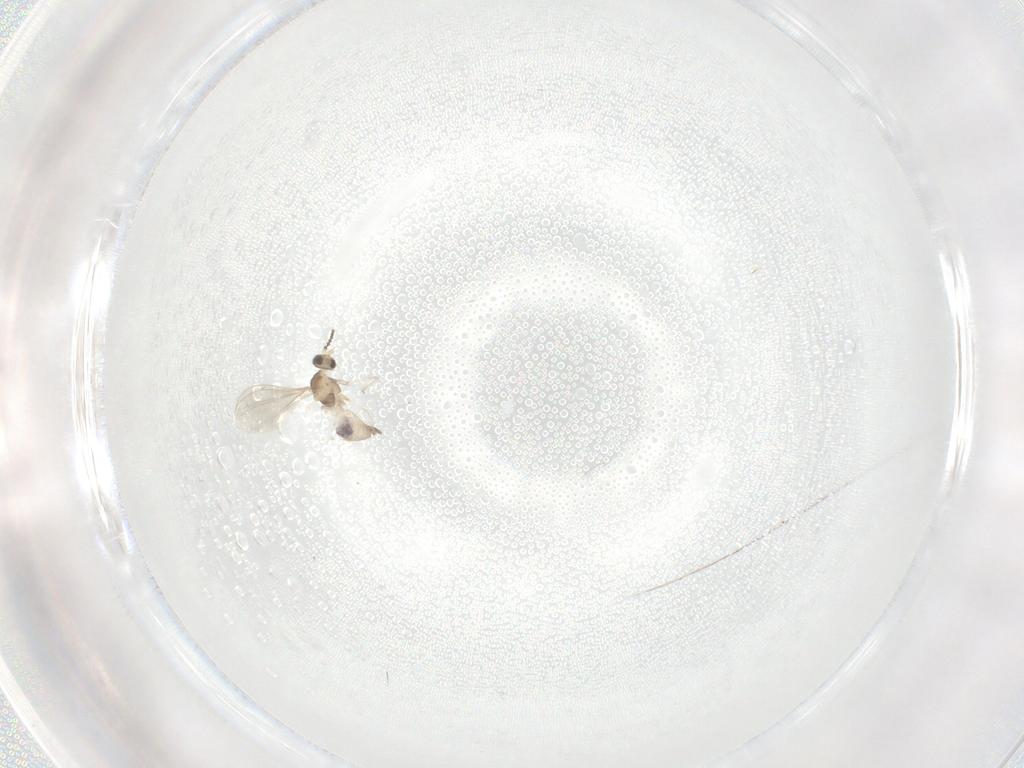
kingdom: Animalia
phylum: Arthropoda
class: Insecta
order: Diptera
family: Cecidomyiidae
